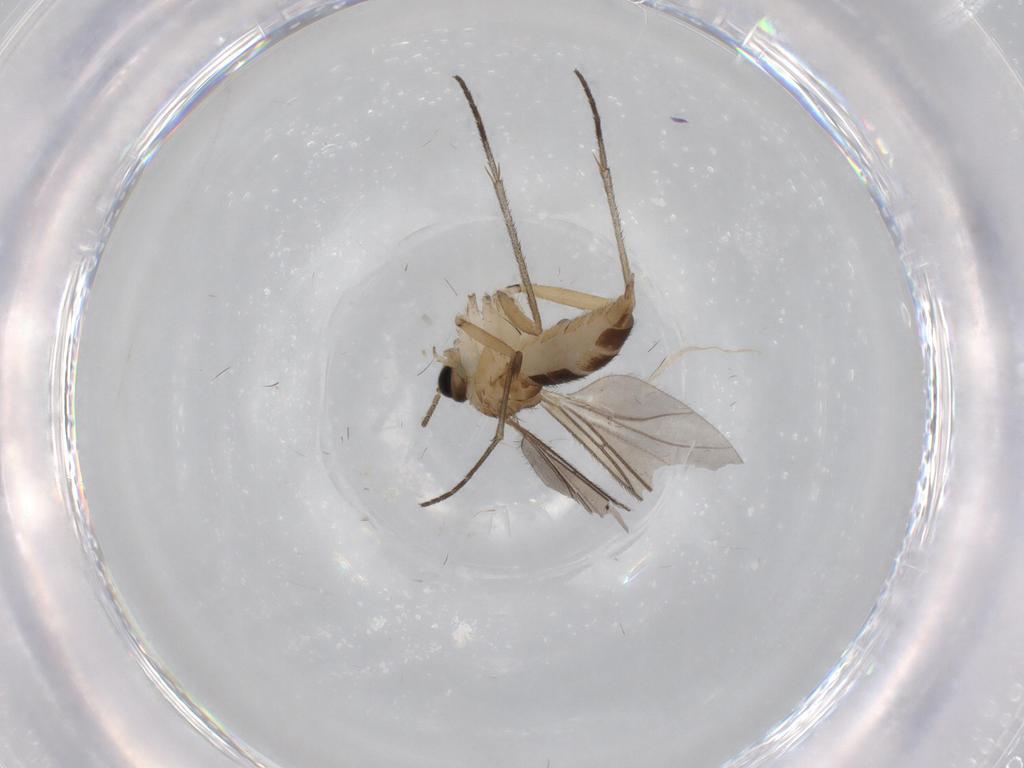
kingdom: Animalia
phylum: Arthropoda
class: Insecta
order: Diptera
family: Sciaridae
